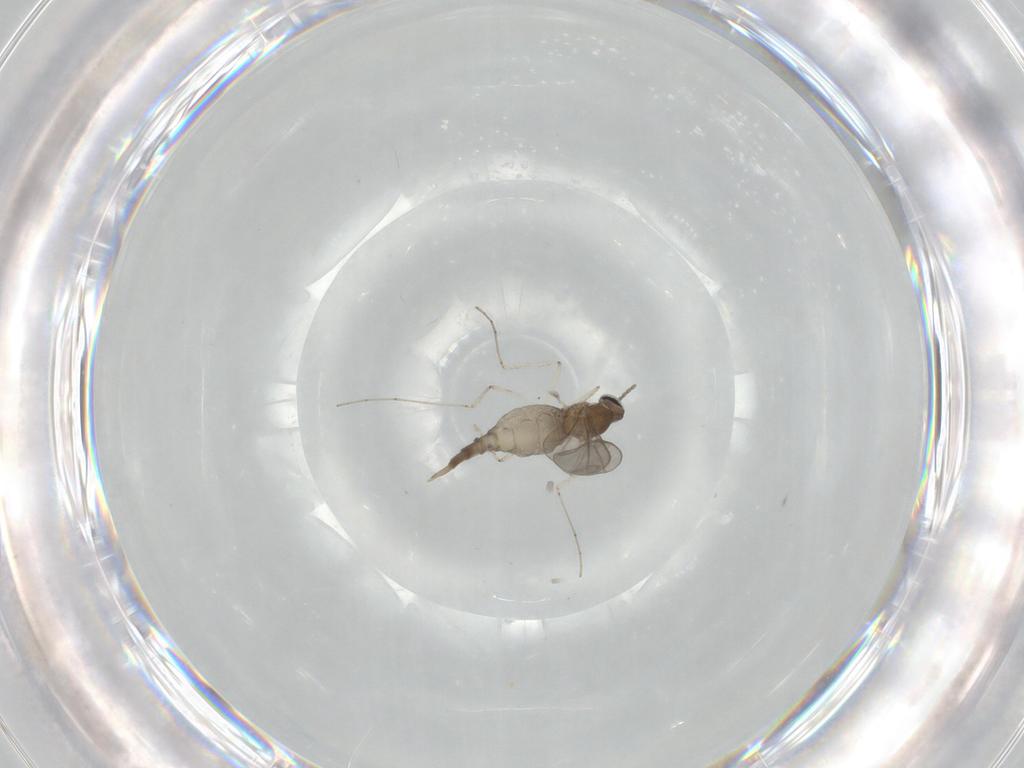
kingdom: Animalia
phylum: Arthropoda
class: Insecta
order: Diptera
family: Cecidomyiidae
